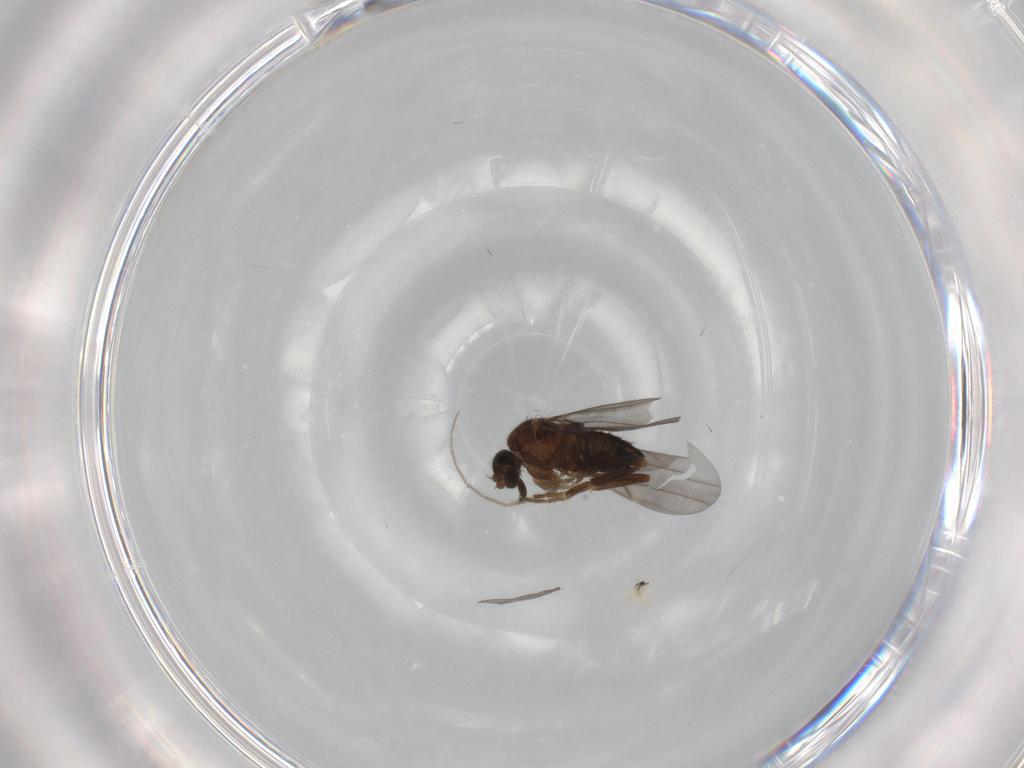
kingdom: Animalia
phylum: Arthropoda
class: Insecta
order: Diptera
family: Phoridae
